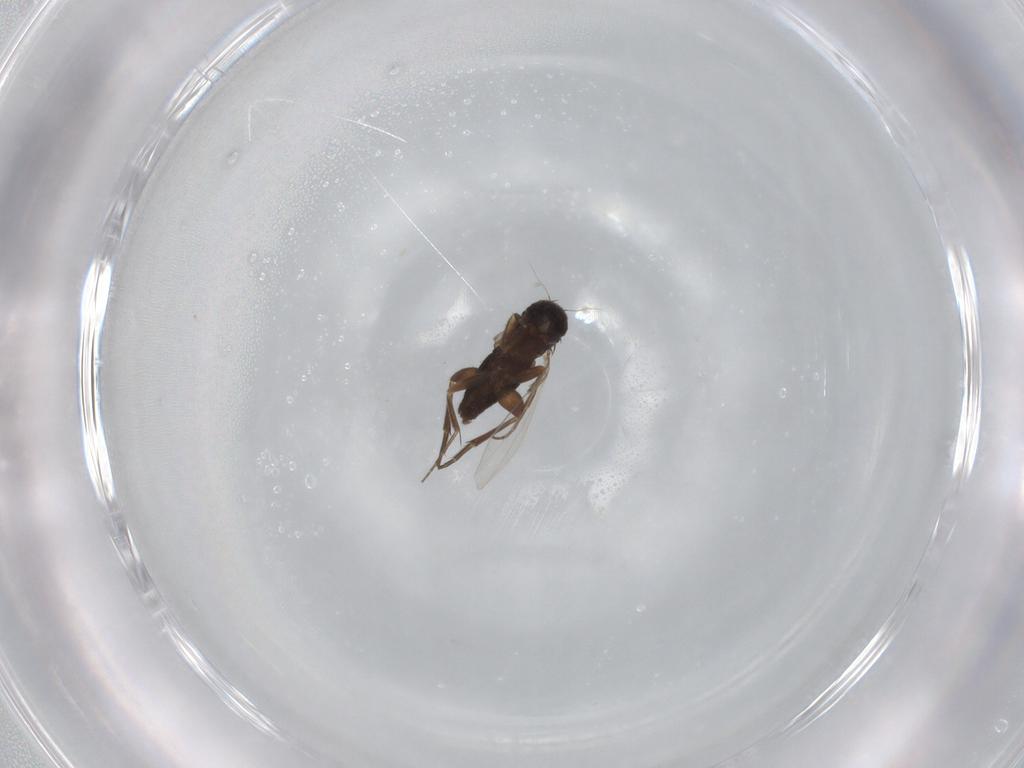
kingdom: Animalia
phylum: Arthropoda
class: Insecta
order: Diptera
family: Phoridae
